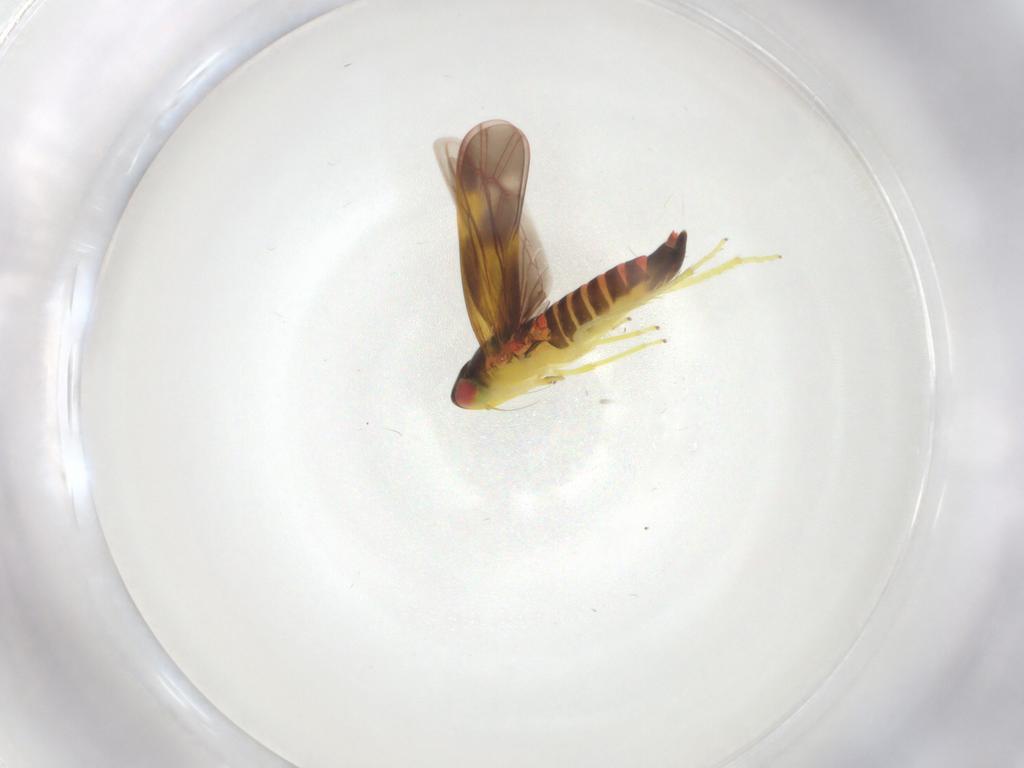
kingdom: Animalia
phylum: Arthropoda
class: Insecta
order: Hemiptera
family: Cicadellidae
